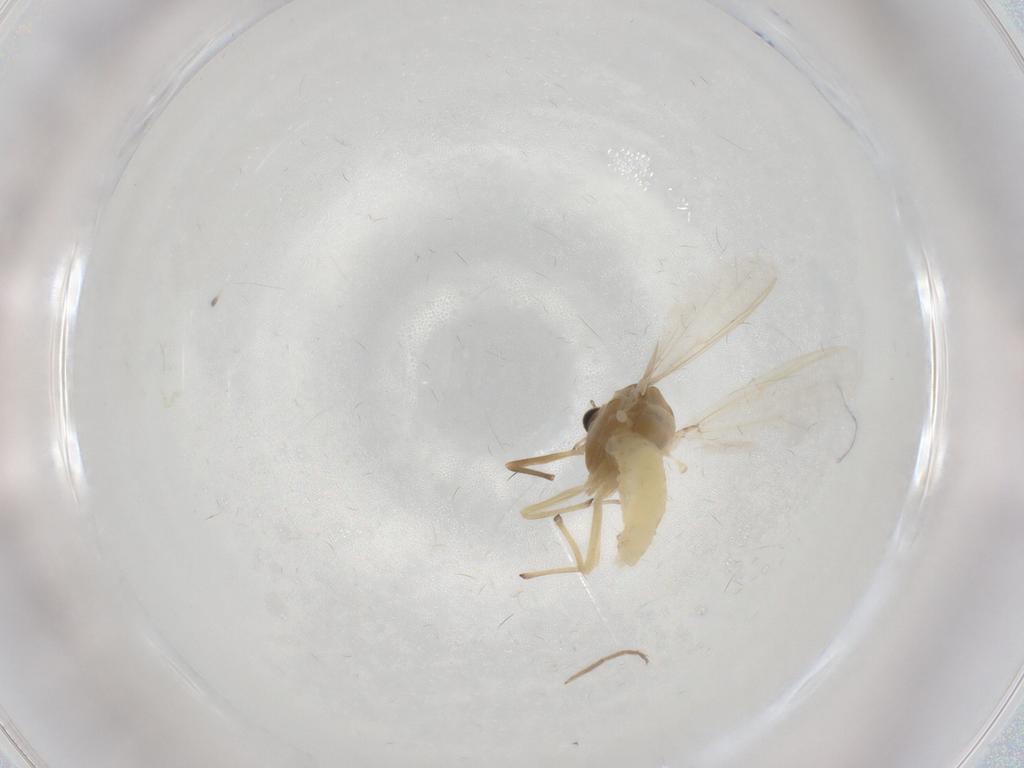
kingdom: Animalia
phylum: Arthropoda
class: Insecta
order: Diptera
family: Chironomidae
